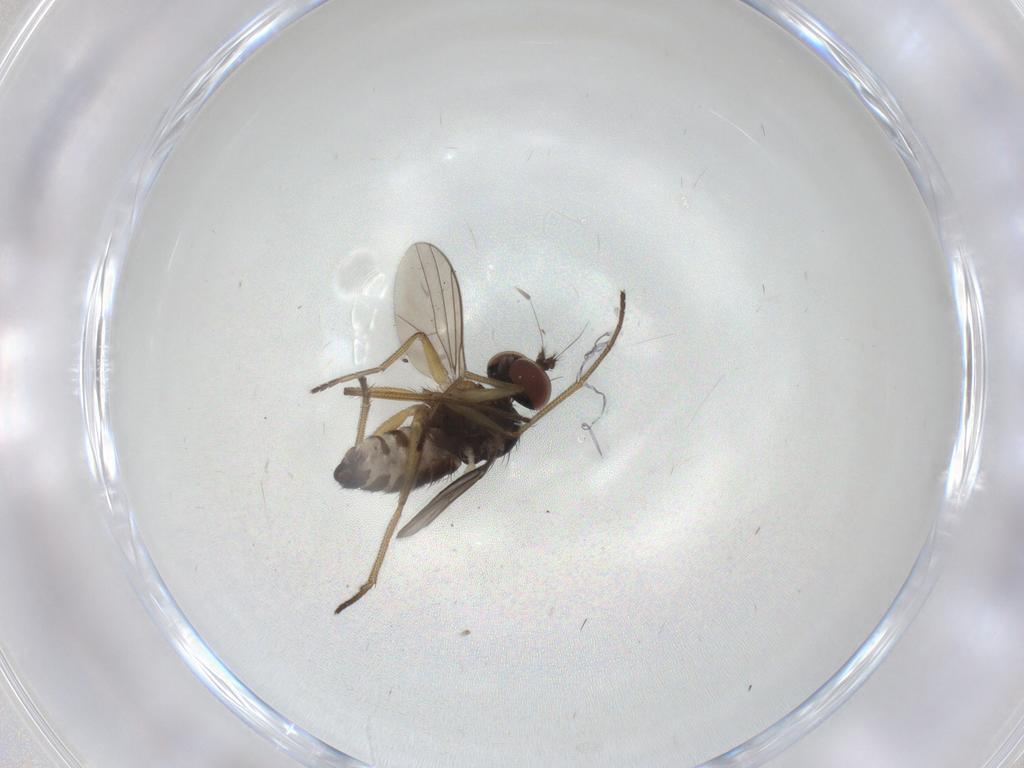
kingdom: Animalia
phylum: Arthropoda
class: Insecta
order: Diptera
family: Dolichopodidae
